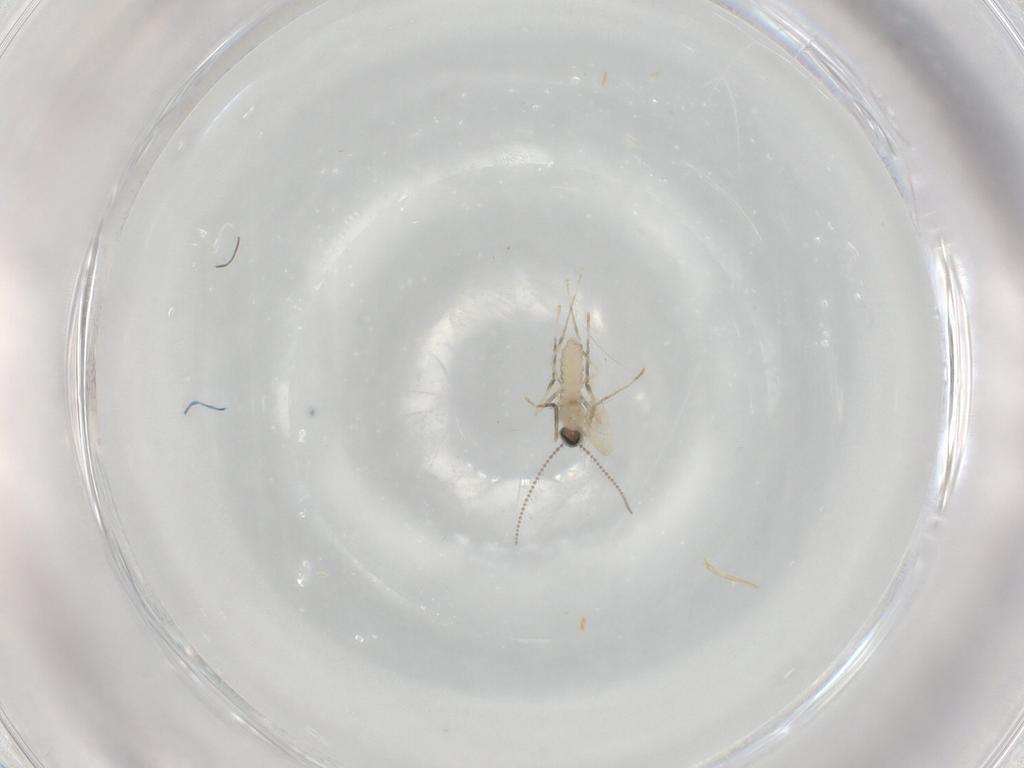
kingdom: Animalia
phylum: Arthropoda
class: Insecta
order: Diptera
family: Cecidomyiidae
